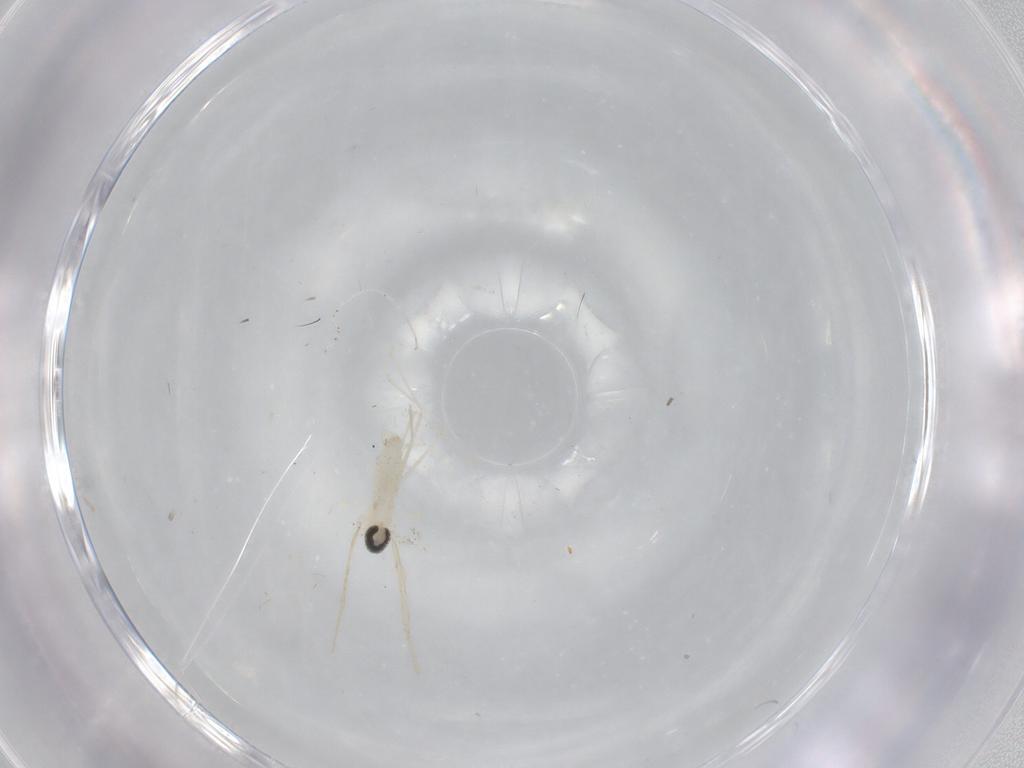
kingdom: Animalia
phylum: Arthropoda
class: Insecta
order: Diptera
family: Cecidomyiidae
